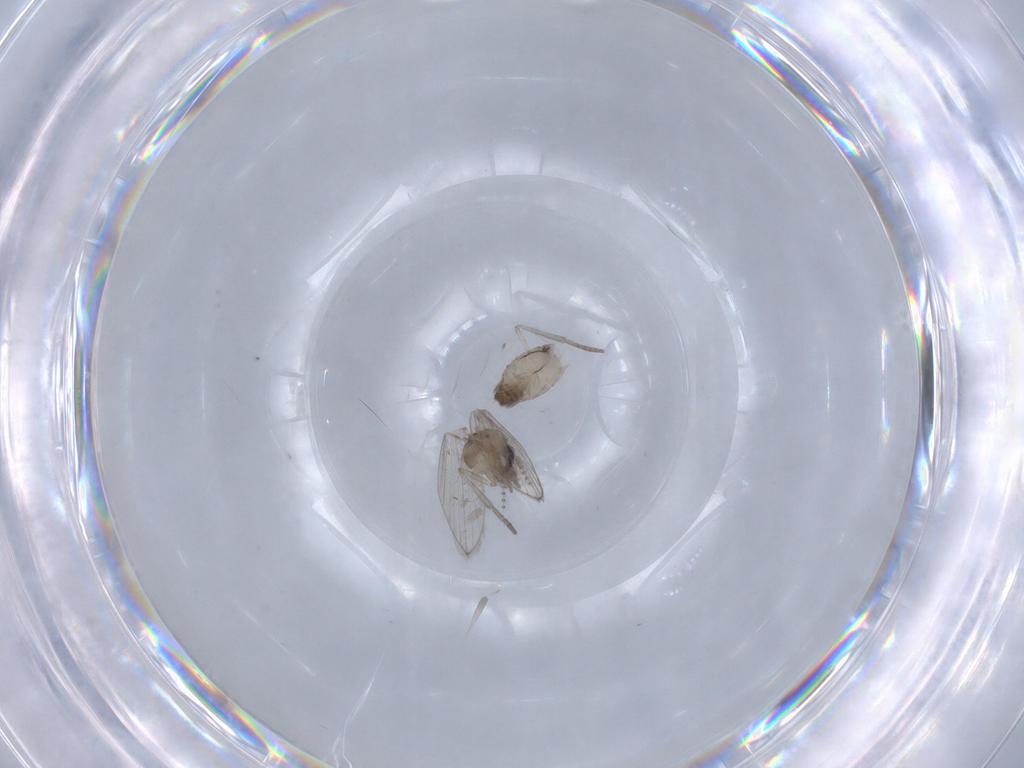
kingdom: Animalia
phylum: Arthropoda
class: Insecta
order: Diptera
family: Psychodidae
